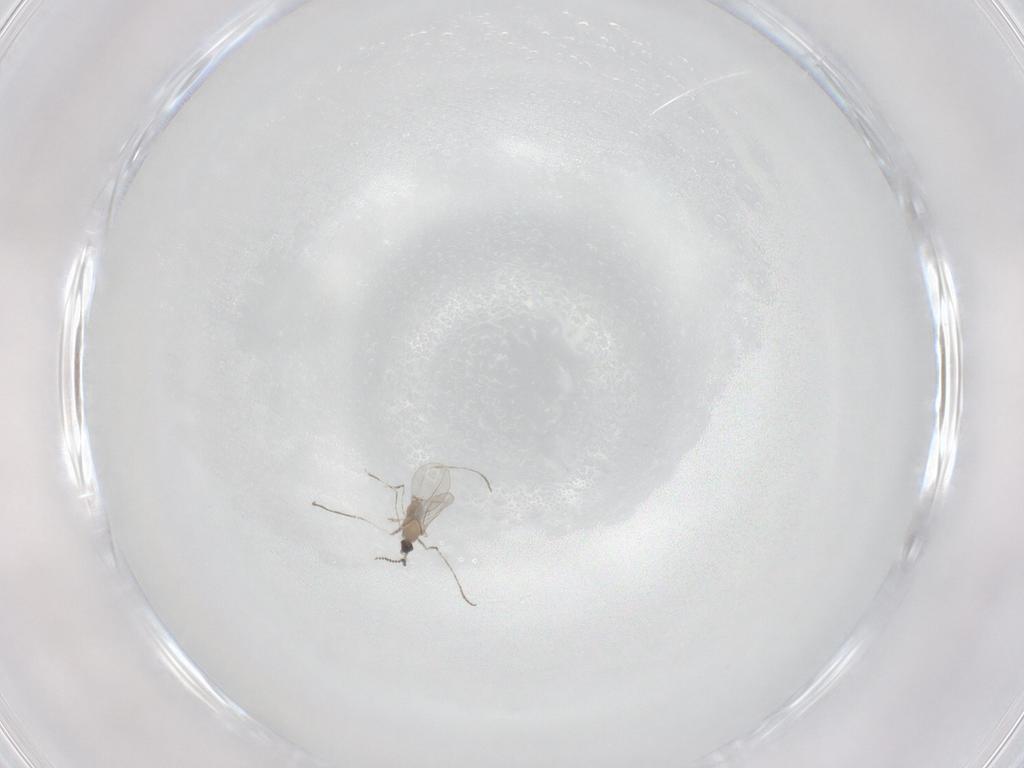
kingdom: Animalia
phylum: Arthropoda
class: Insecta
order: Diptera
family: Cecidomyiidae
